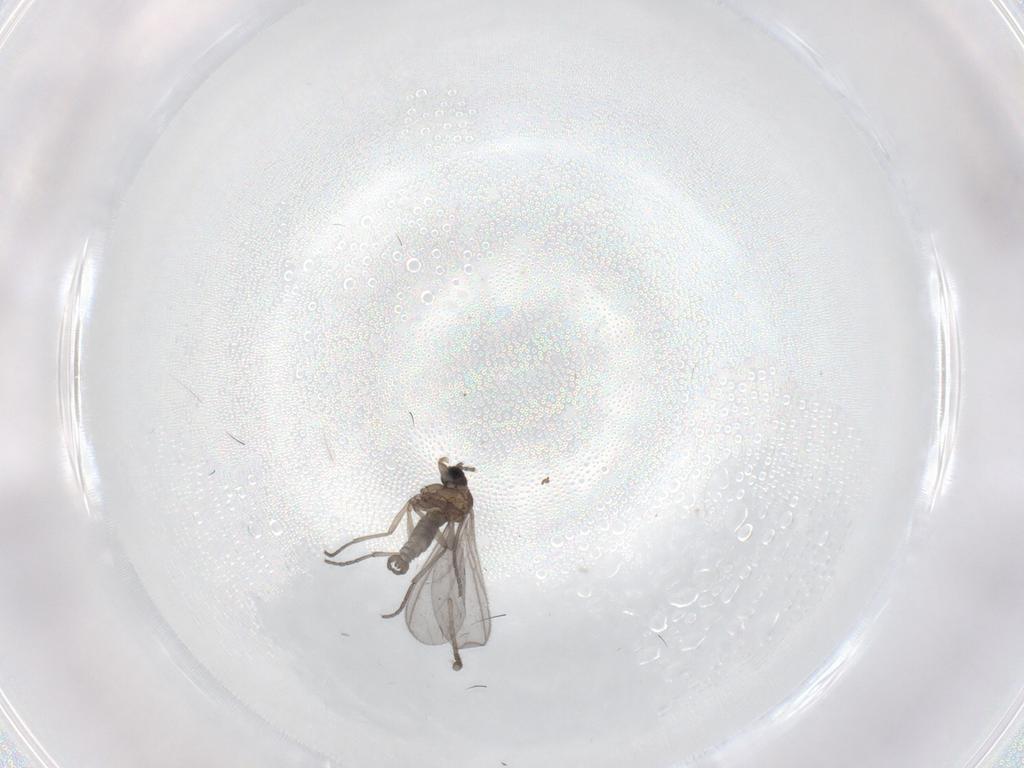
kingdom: Animalia
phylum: Arthropoda
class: Insecta
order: Diptera
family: Sciaridae
